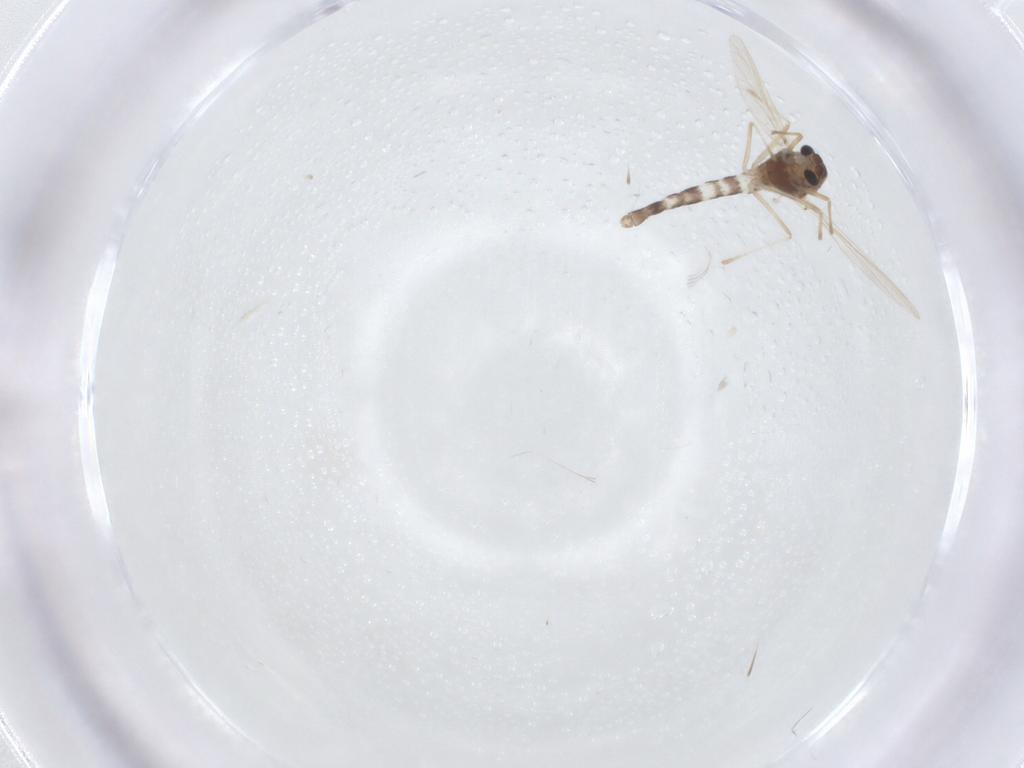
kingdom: Animalia
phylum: Arthropoda
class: Insecta
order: Diptera
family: Chironomidae
